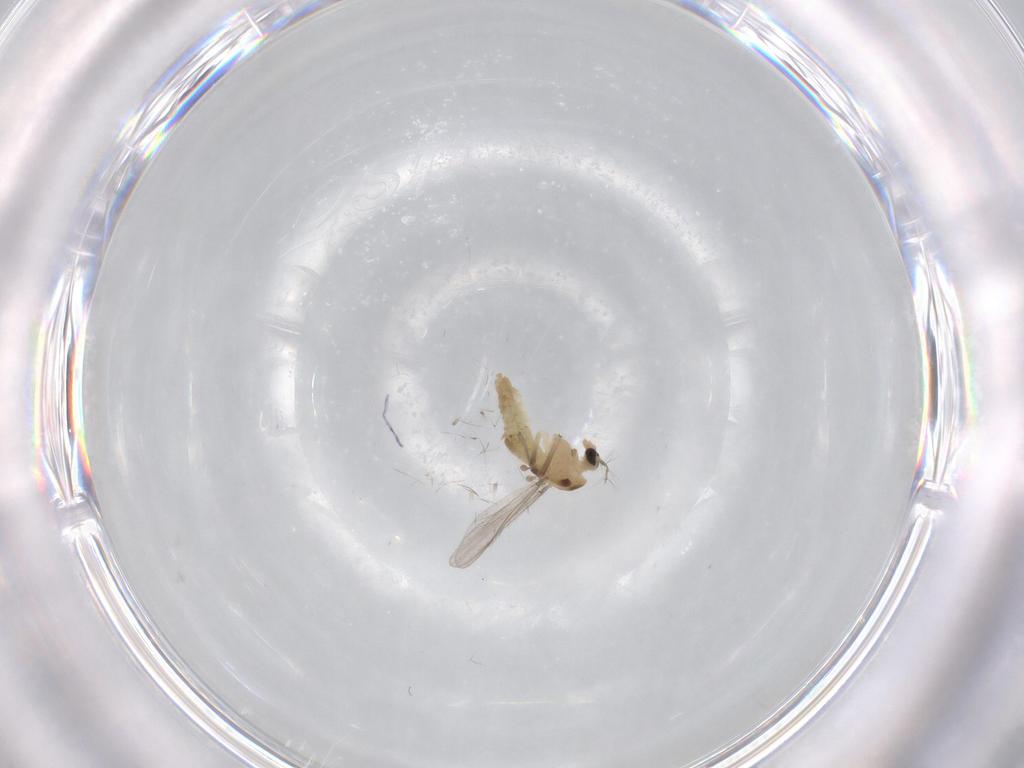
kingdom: Animalia
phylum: Arthropoda
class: Insecta
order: Diptera
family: Chironomidae
